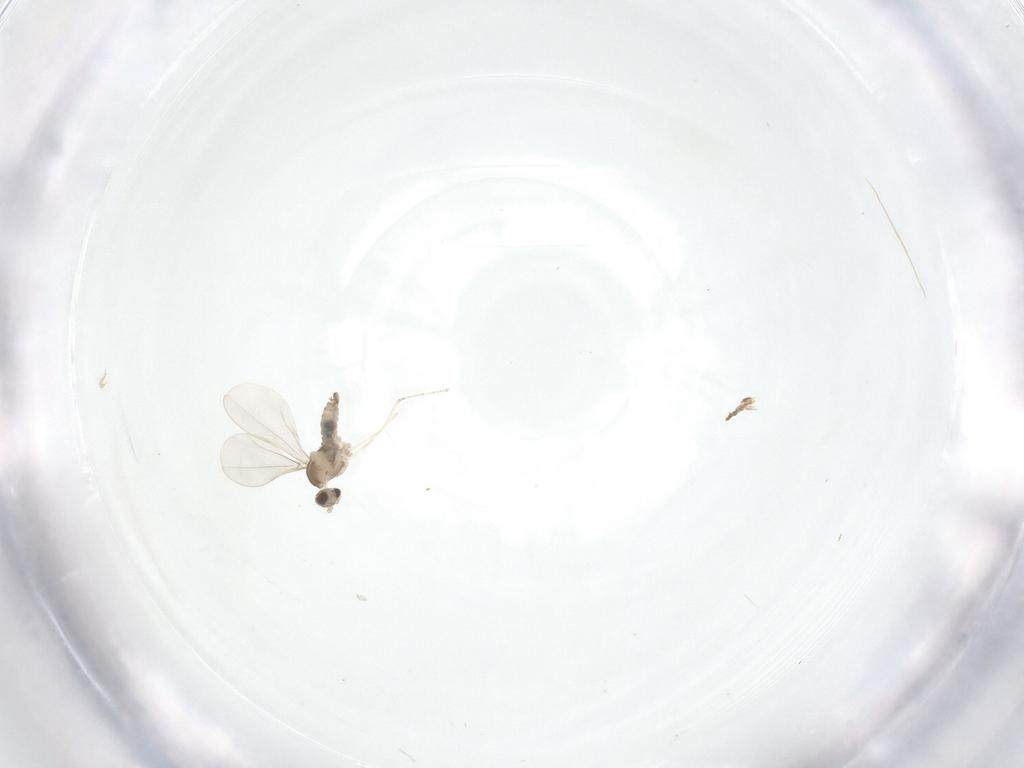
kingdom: Animalia
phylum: Arthropoda
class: Insecta
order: Diptera
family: Cecidomyiidae
